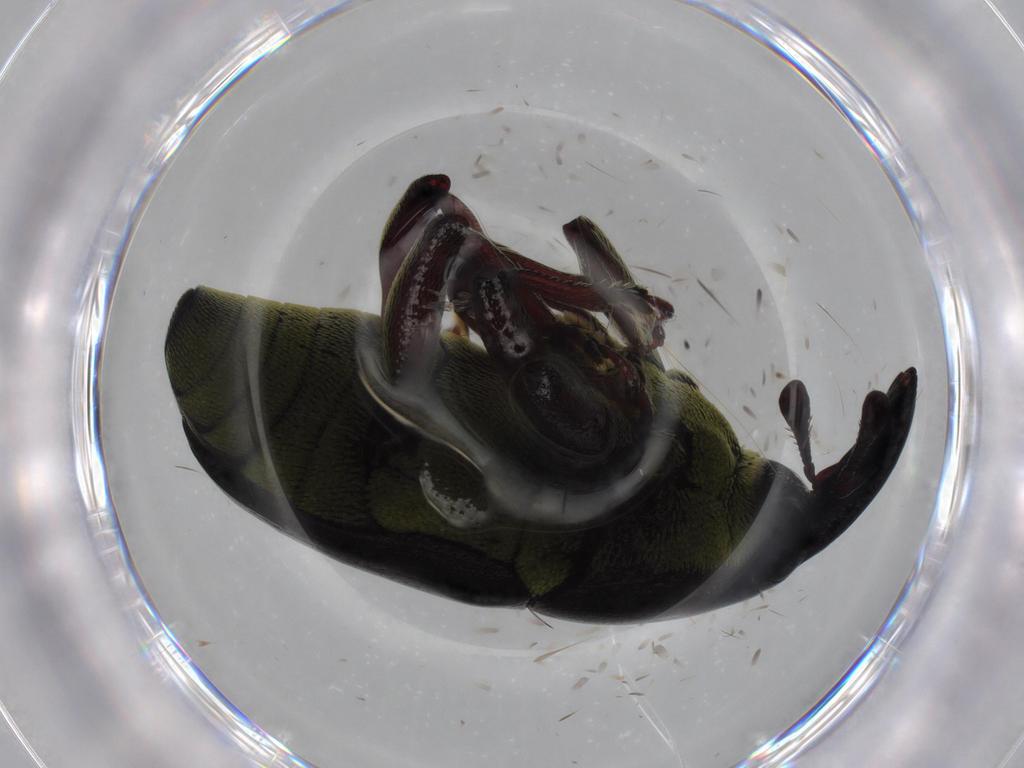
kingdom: Animalia
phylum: Arthropoda
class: Insecta
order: Coleoptera
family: Curculionidae
